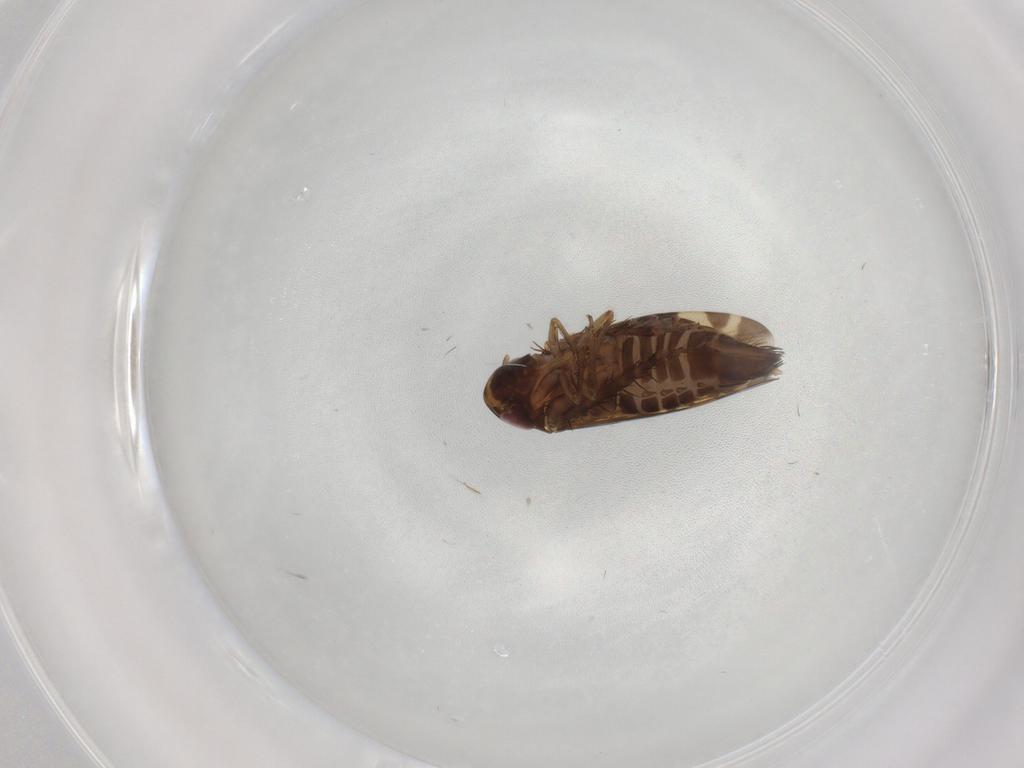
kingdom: Animalia
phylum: Arthropoda
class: Insecta
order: Hemiptera
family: Cicadellidae
